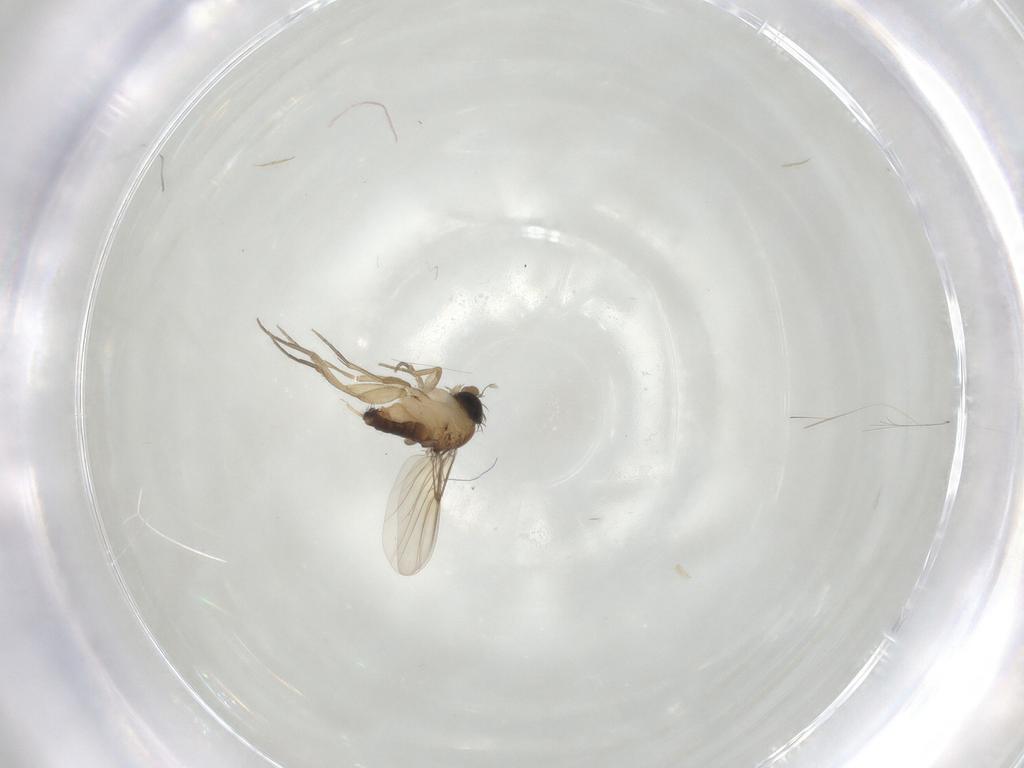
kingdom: Animalia
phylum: Arthropoda
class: Insecta
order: Diptera
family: Phoridae
